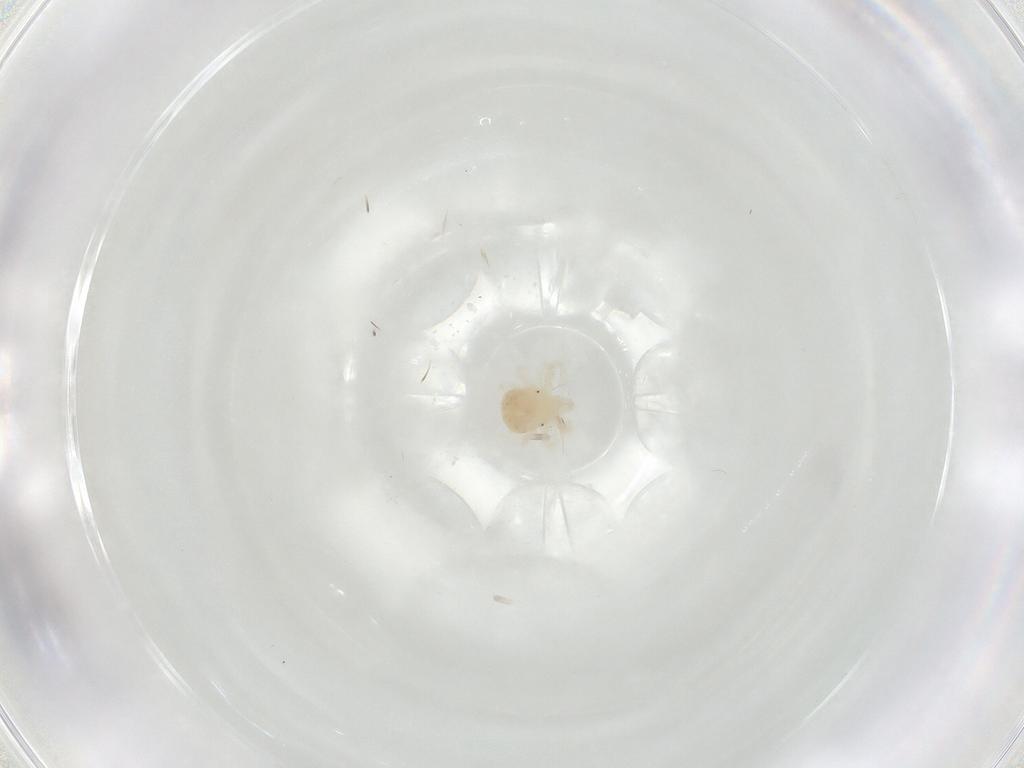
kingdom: Animalia
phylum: Arthropoda
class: Arachnida
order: Trombidiformes
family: Anystidae
